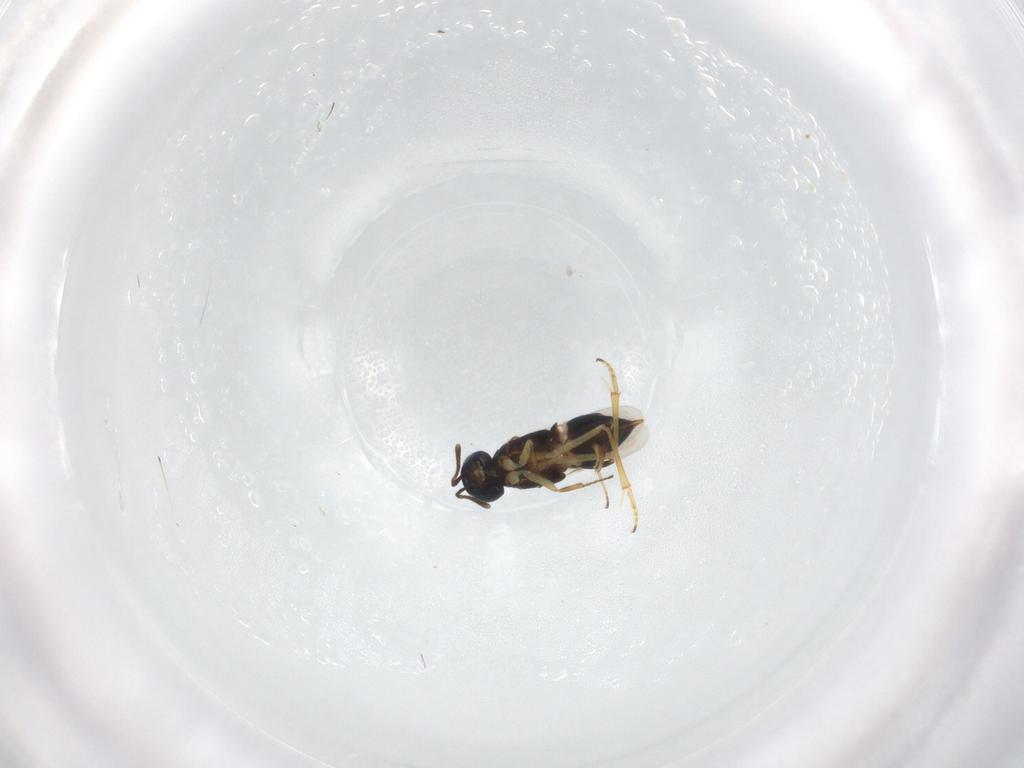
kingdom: Animalia
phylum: Arthropoda
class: Insecta
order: Hymenoptera
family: Encyrtidae
